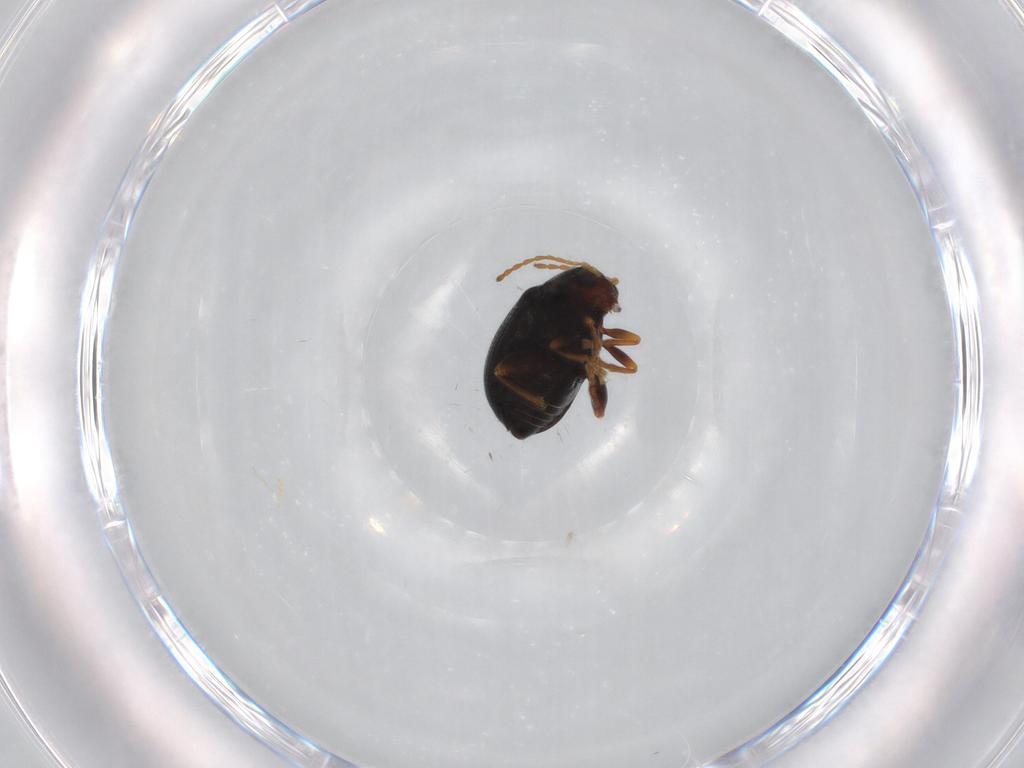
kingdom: Animalia
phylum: Arthropoda
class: Insecta
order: Coleoptera
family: Chrysomelidae
